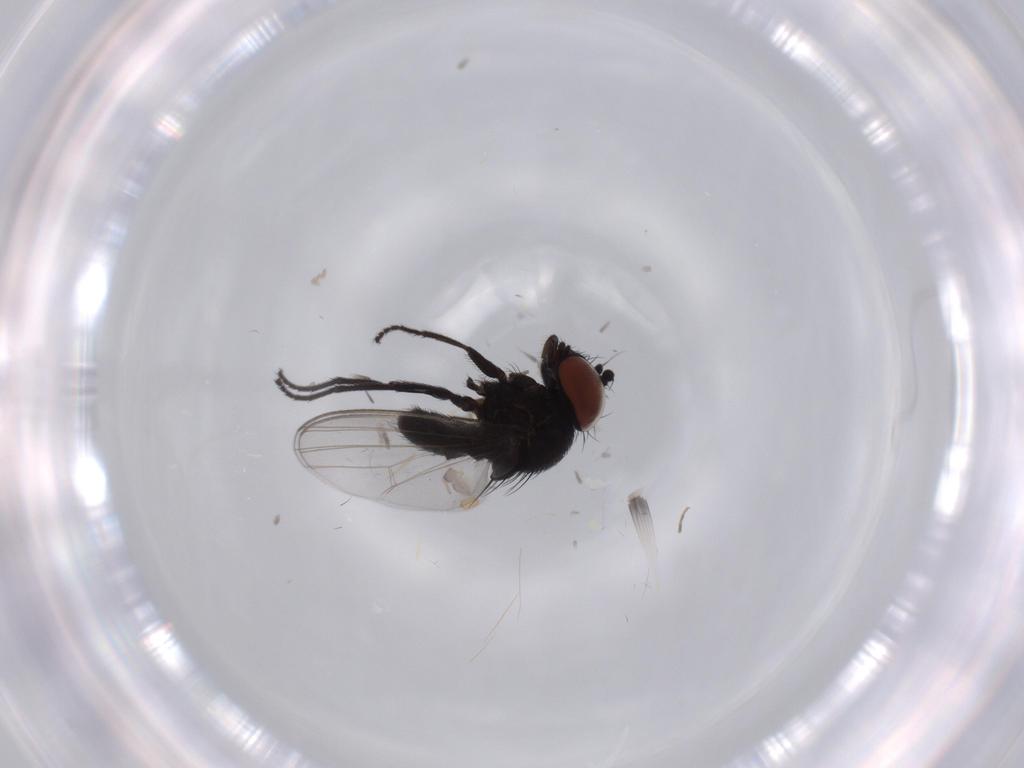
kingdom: Animalia
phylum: Arthropoda
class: Insecta
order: Diptera
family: Milichiidae
